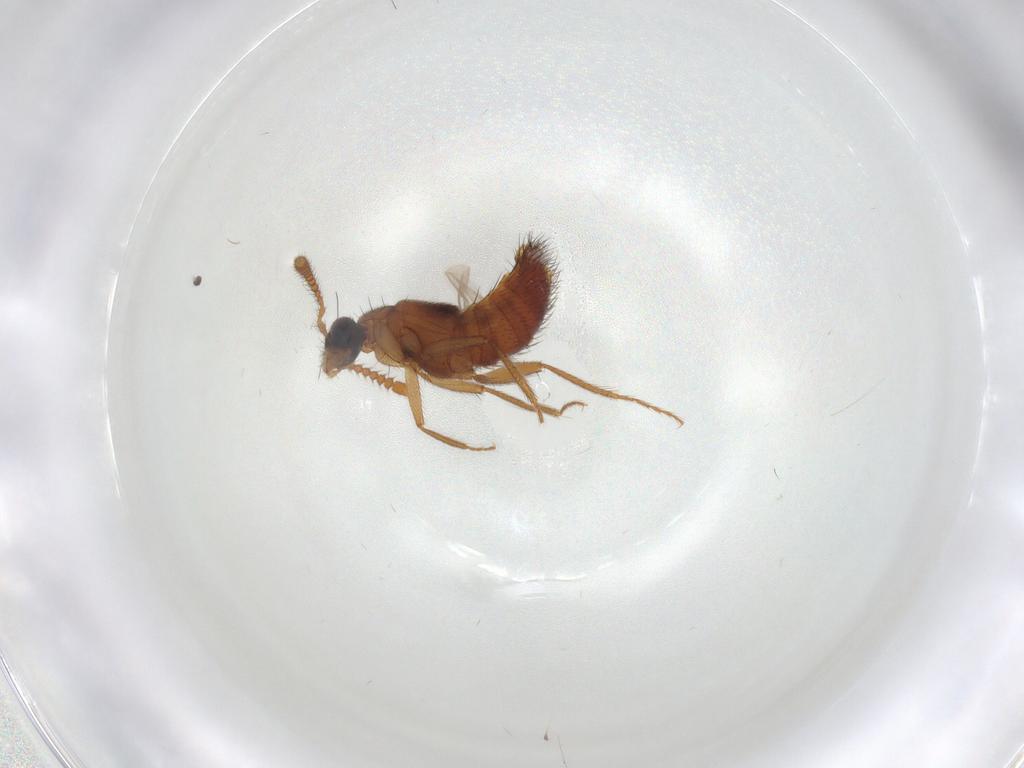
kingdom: Animalia
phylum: Arthropoda
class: Insecta
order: Coleoptera
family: Staphylinidae
